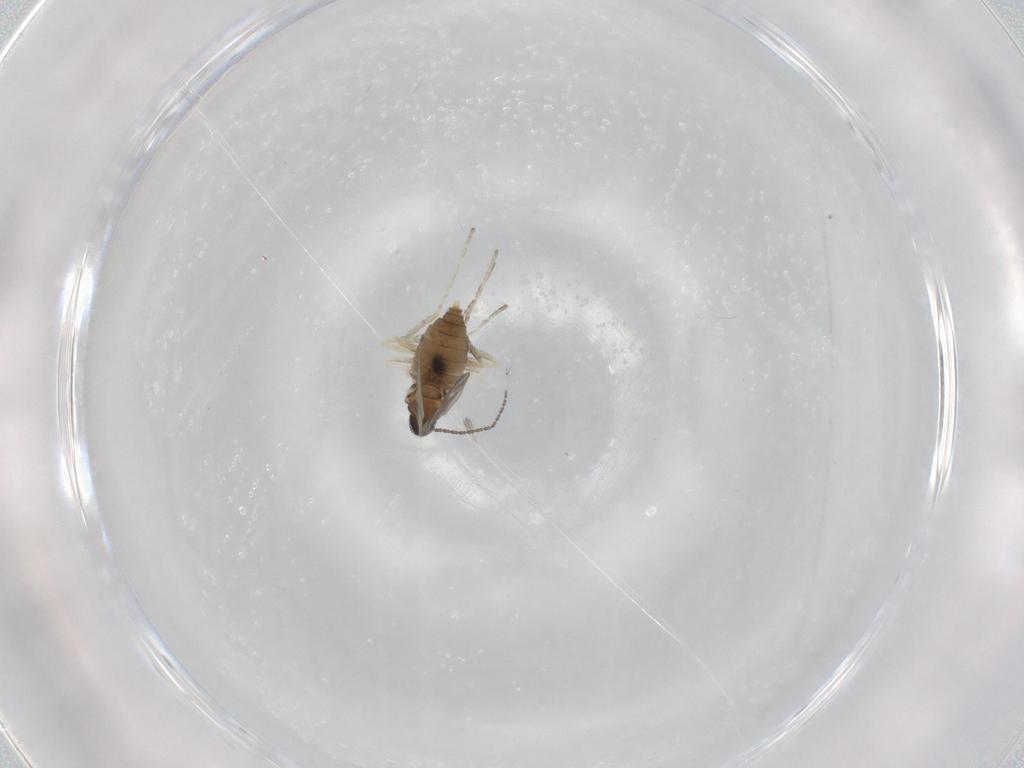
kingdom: Animalia
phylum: Arthropoda
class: Insecta
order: Diptera
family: Cecidomyiidae
